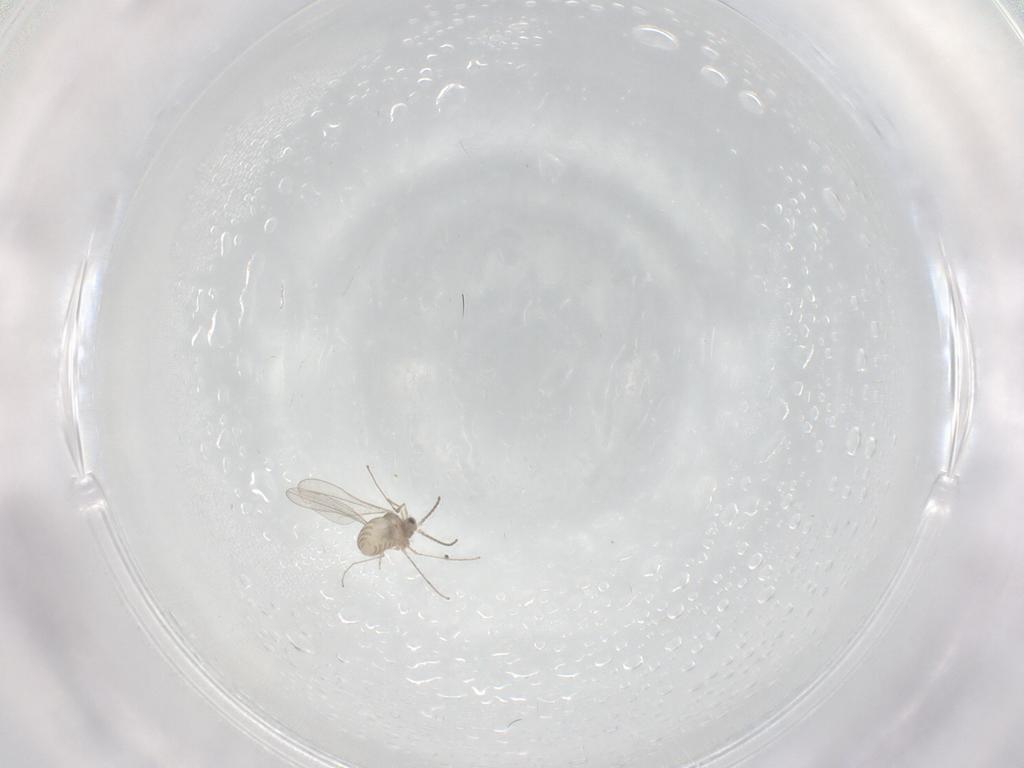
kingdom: Animalia
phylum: Arthropoda
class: Insecta
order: Diptera
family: Cecidomyiidae
